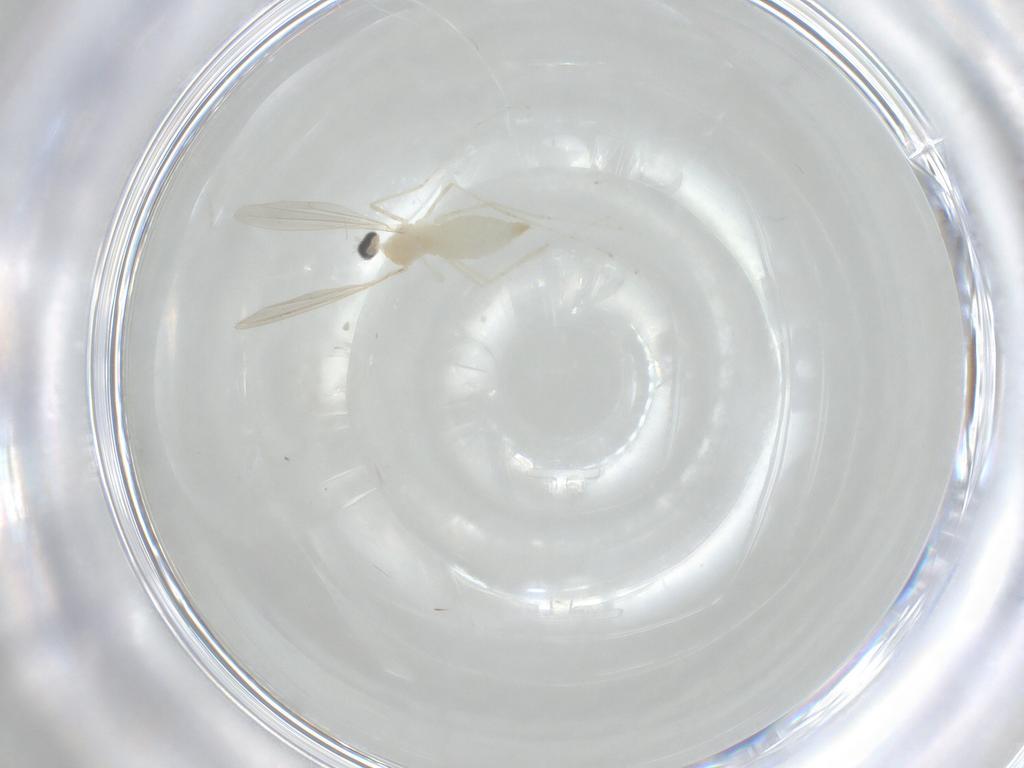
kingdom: Animalia
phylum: Arthropoda
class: Insecta
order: Diptera
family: Cecidomyiidae
